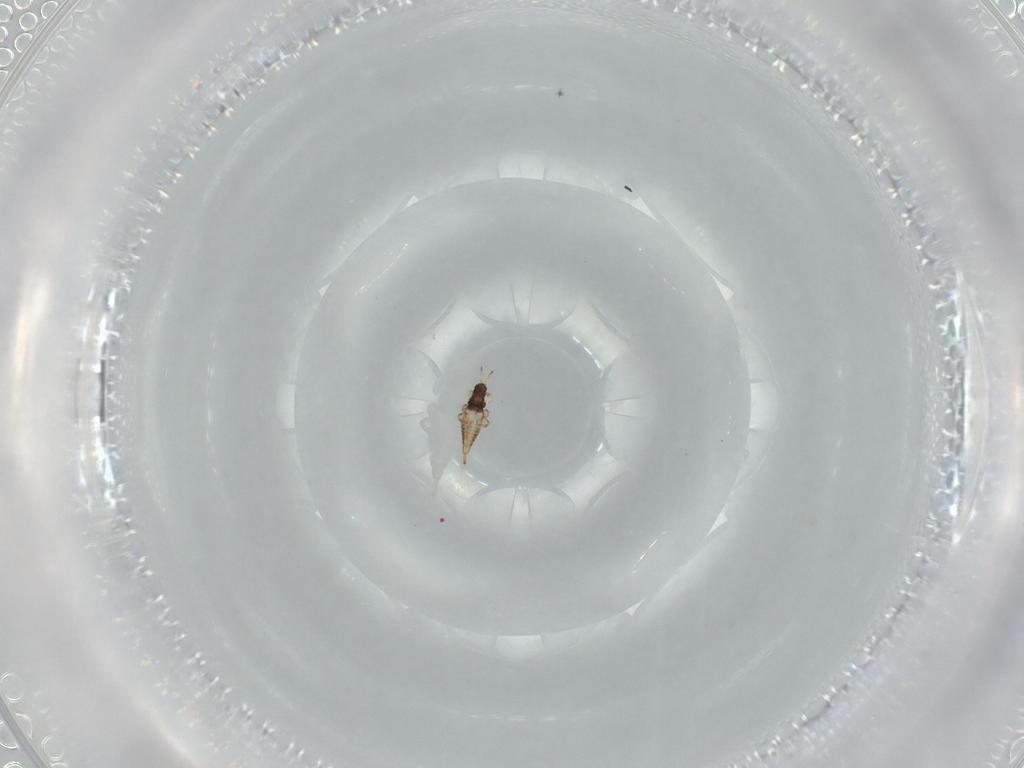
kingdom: Animalia
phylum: Arthropoda
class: Insecta
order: Thysanoptera
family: Phlaeothripidae
